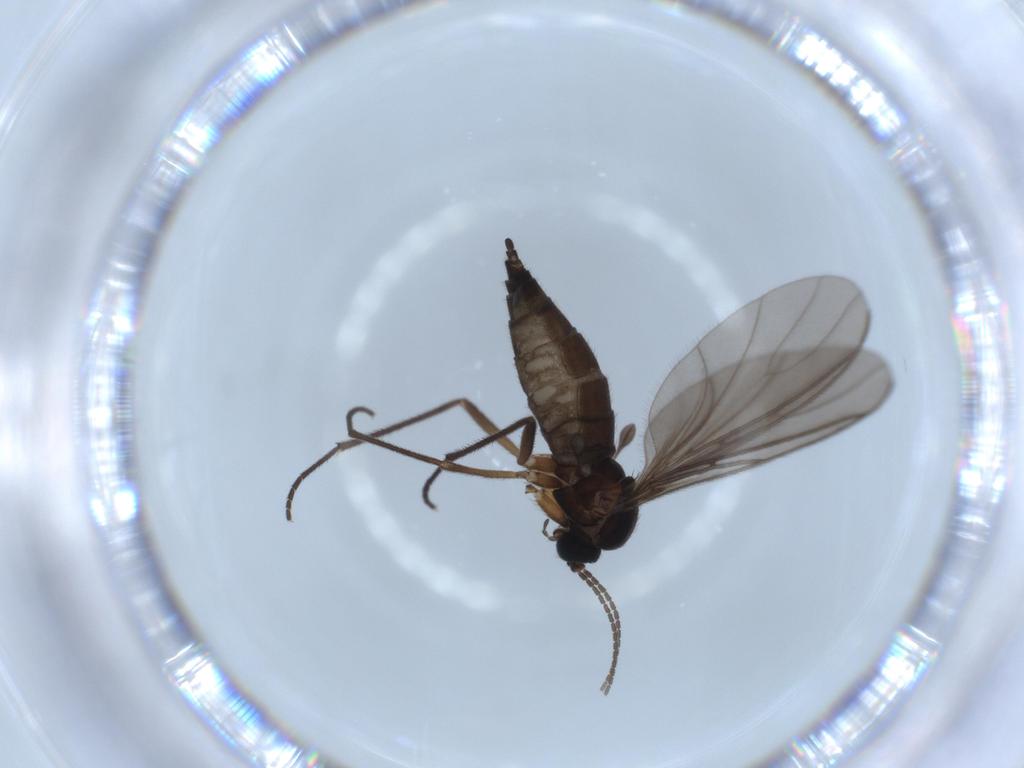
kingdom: Animalia
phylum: Arthropoda
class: Insecta
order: Diptera
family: Sciaridae
